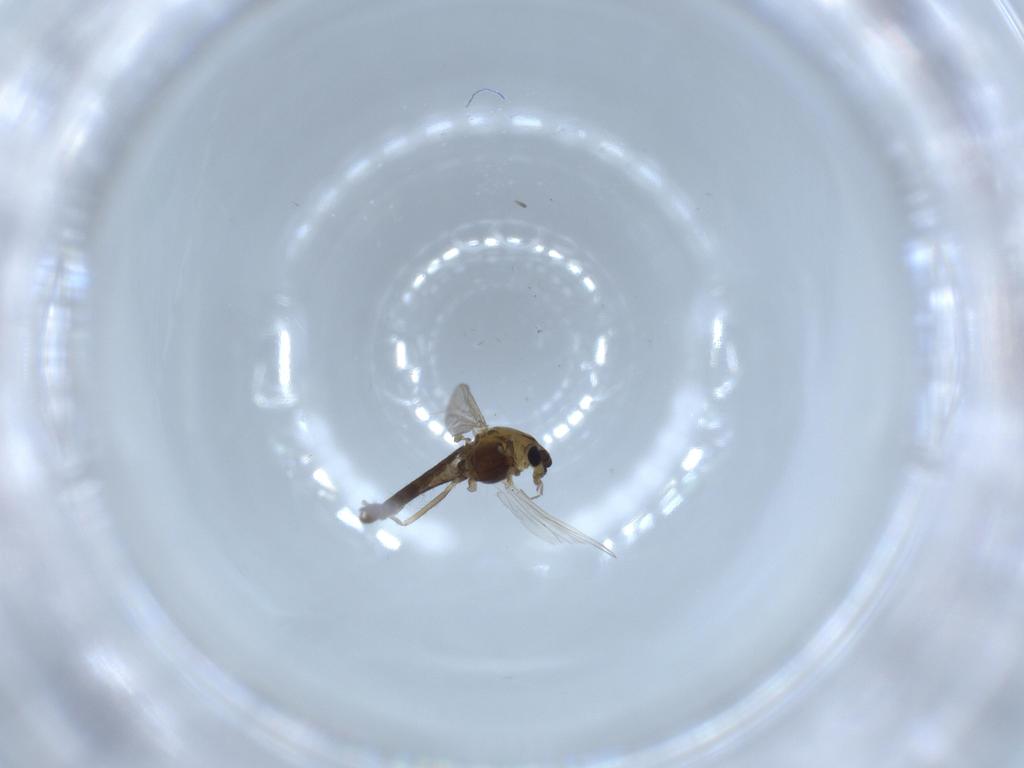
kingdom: Animalia
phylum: Arthropoda
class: Insecta
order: Diptera
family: Chironomidae
